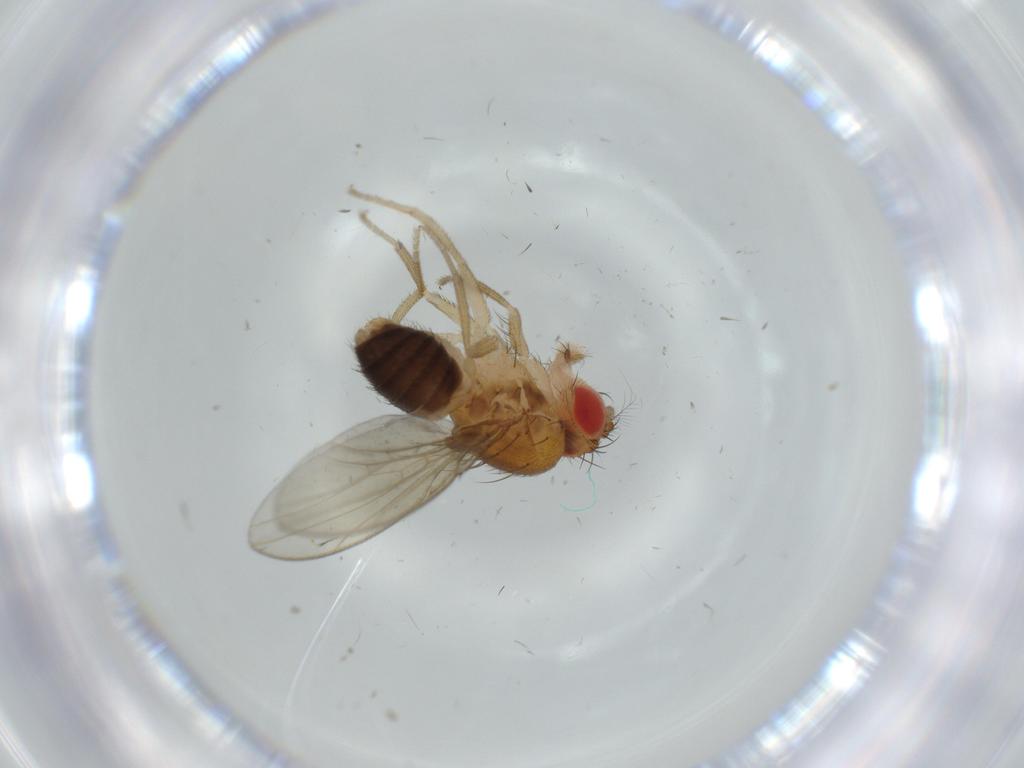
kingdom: Animalia
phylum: Arthropoda
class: Insecta
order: Diptera
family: Drosophilidae
